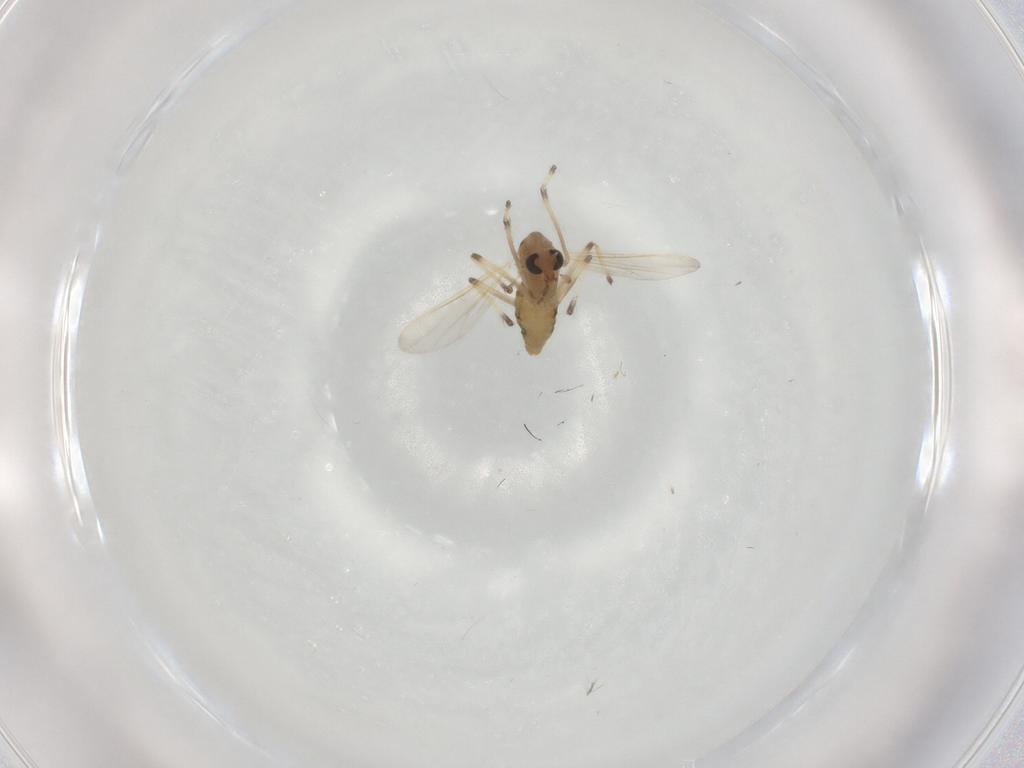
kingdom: Animalia
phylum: Arthropoda
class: Insecta
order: Diptera
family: Chironomidae
